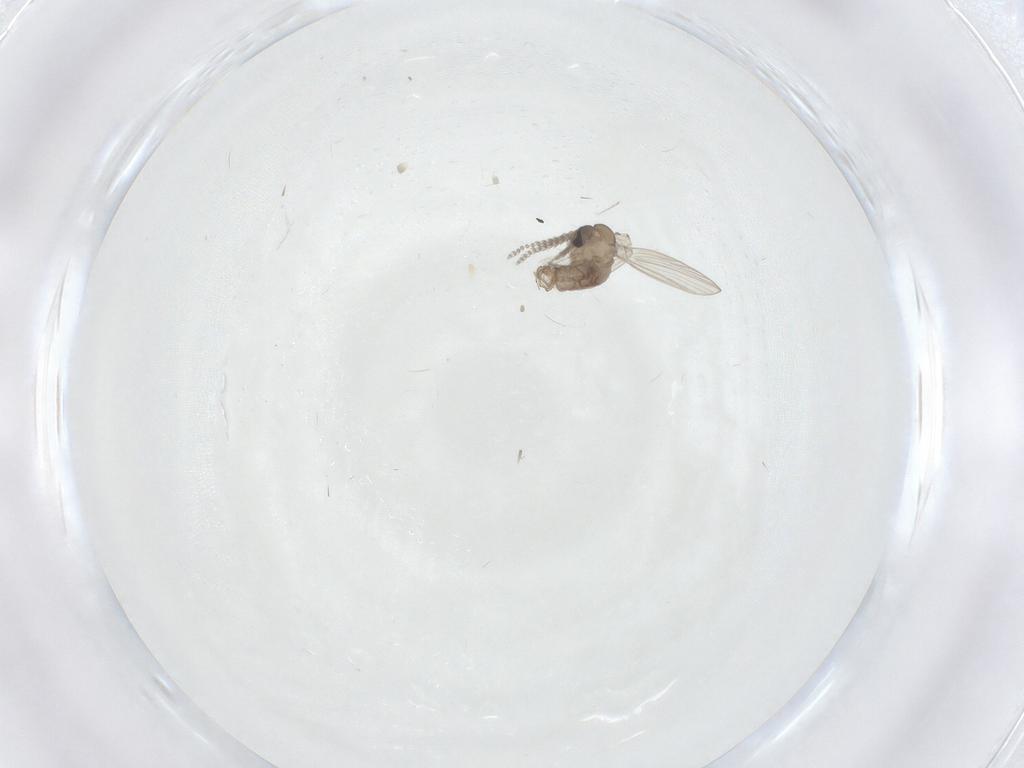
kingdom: Animalia
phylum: Arthropoda
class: Insecta
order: Diptera
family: Psychodidae
